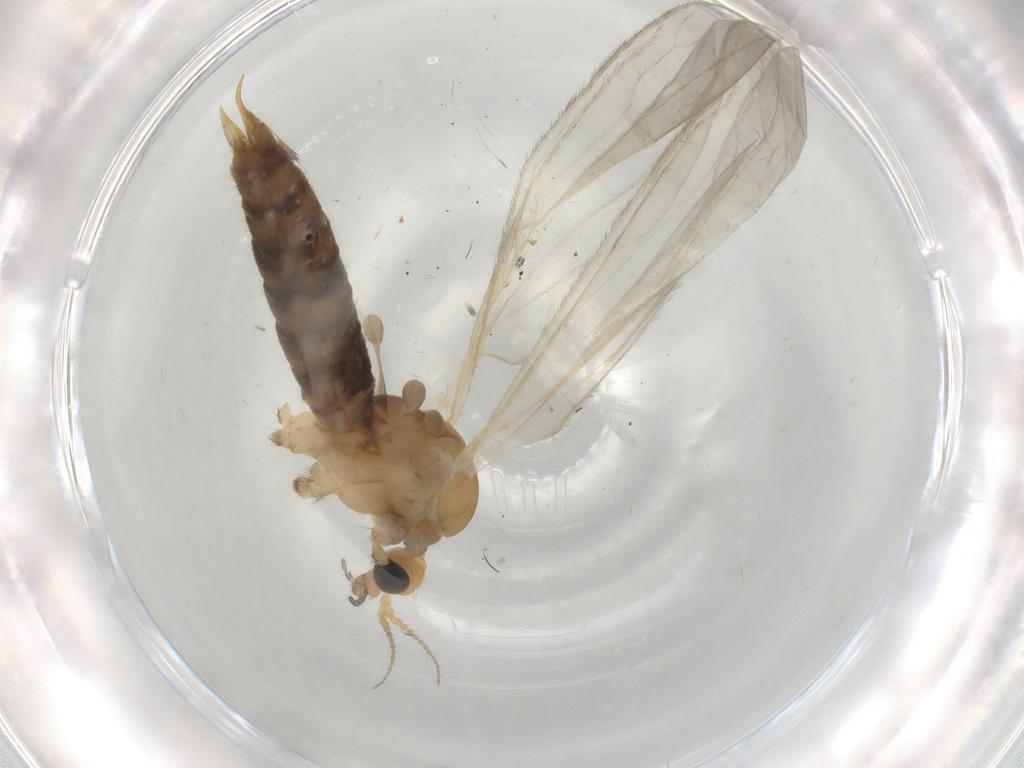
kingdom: Animalia
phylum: Arthropoda
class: Insecta
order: Diptera
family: Limoniidae
